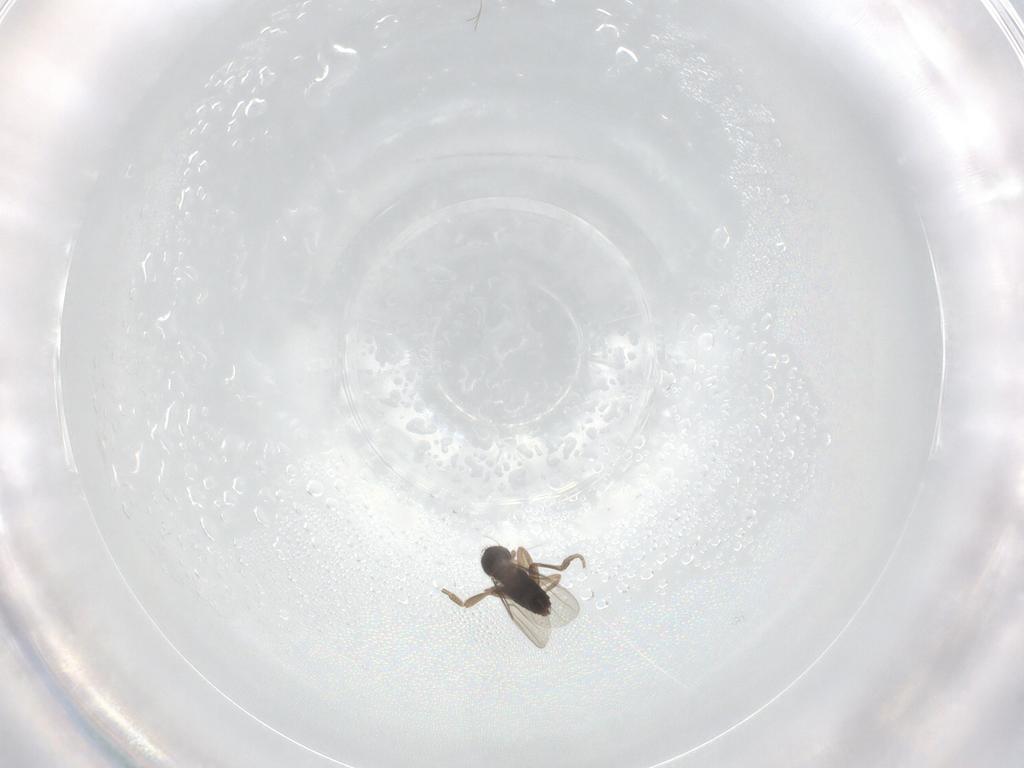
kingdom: Animalia
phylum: Arthropoda
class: Insecta
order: Diptera
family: Phoridae
